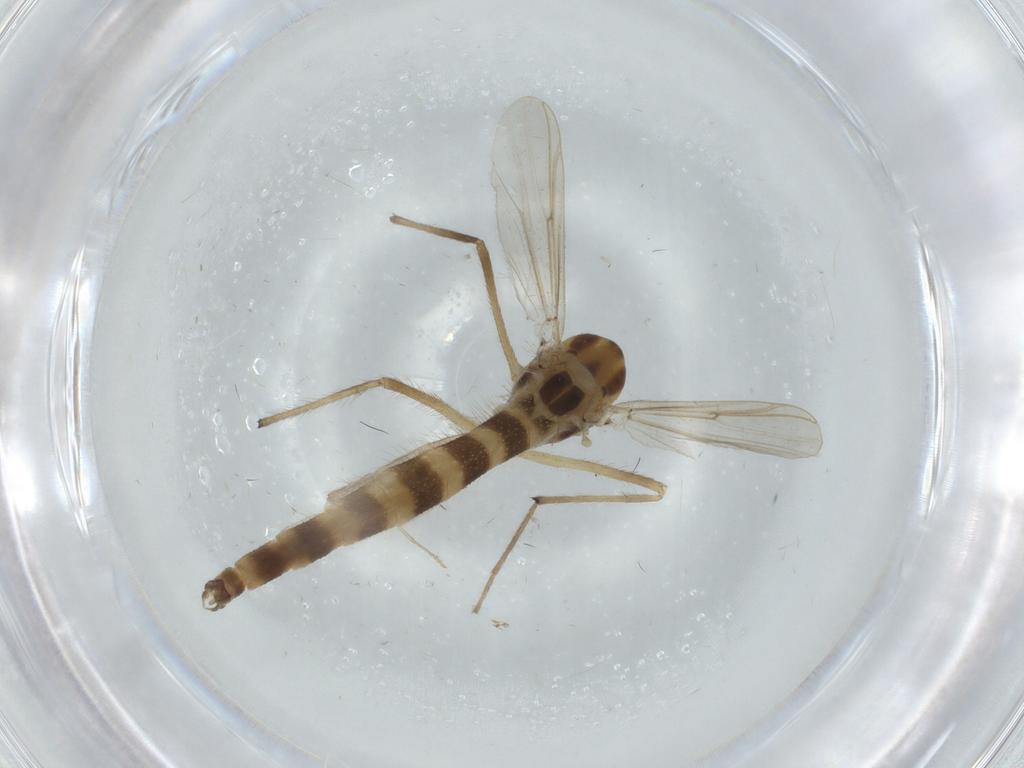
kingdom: Animalia
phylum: Arthropoda
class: Insecta
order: Diptera
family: Chironomidae
